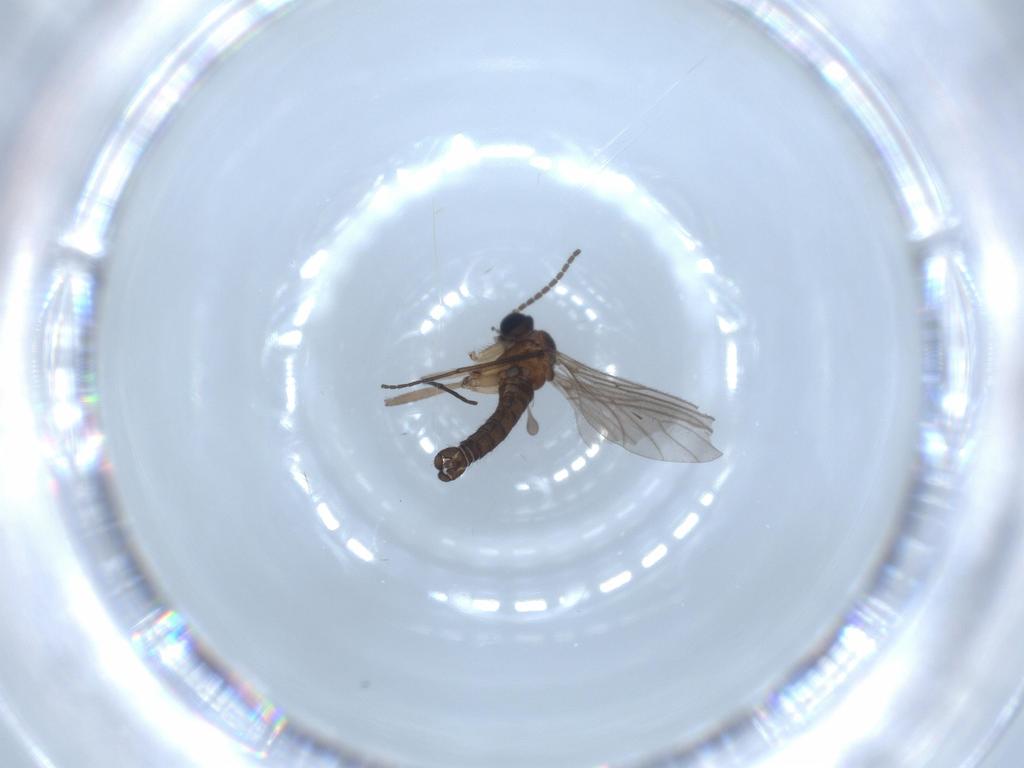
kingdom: Animalia
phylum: Arthropoda
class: Insecta
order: Diptera
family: Sciaridae
